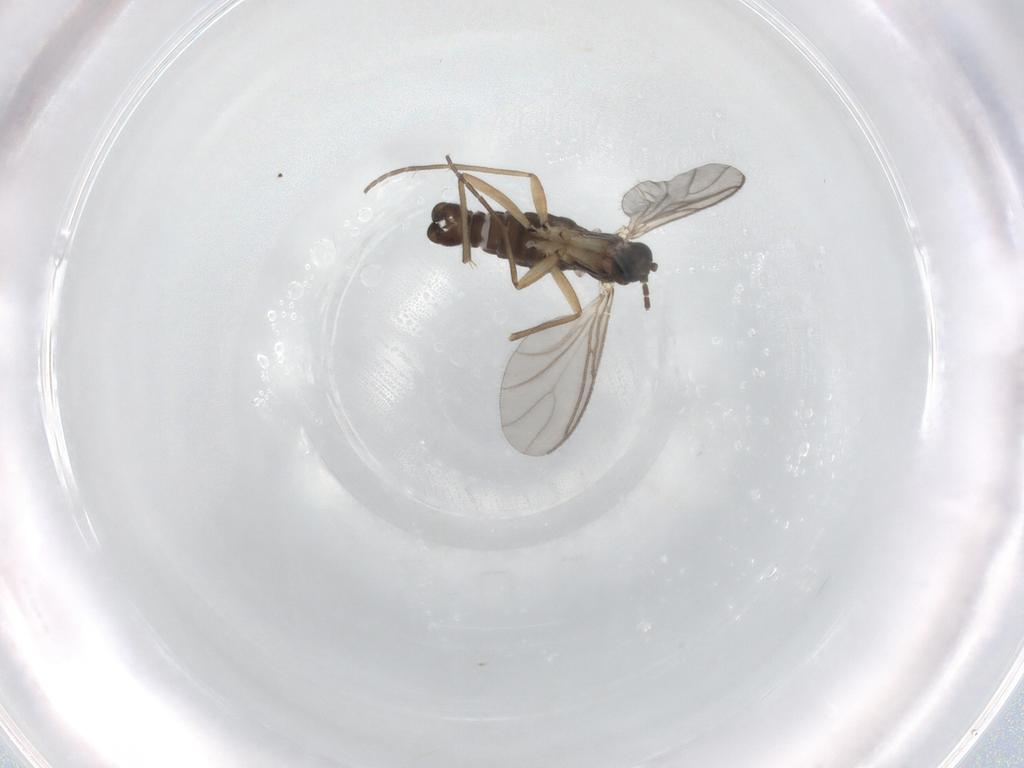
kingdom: Animalia
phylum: Arthropoda
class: Insecta
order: Diptera
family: Sciaridae
